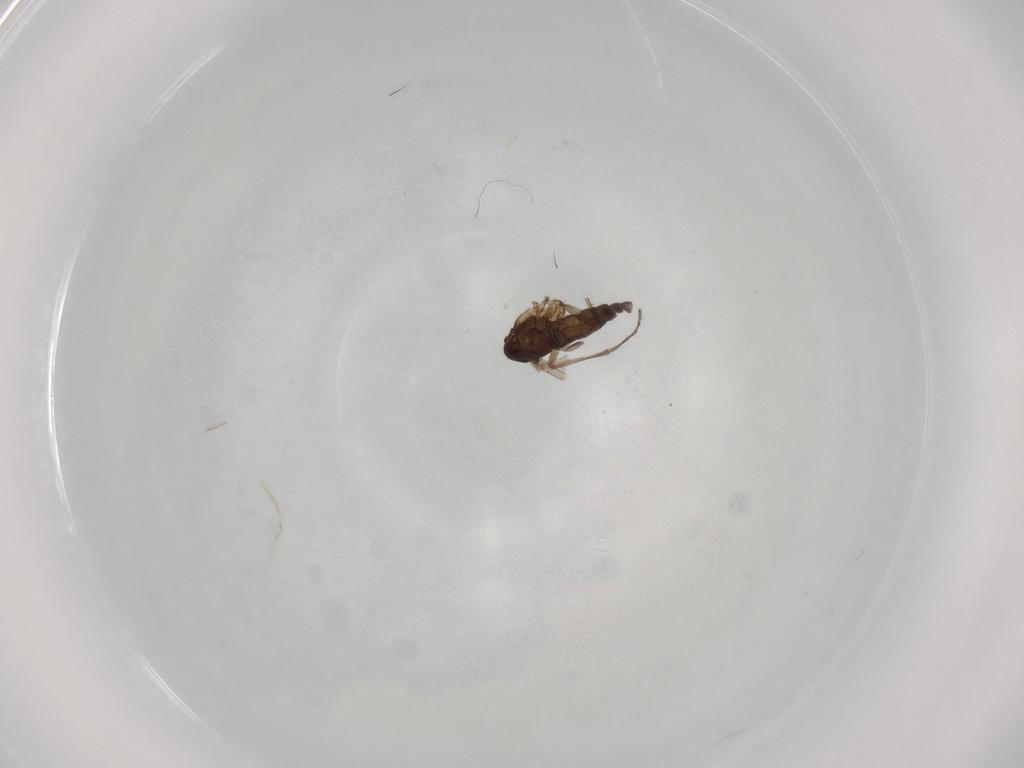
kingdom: Animalia
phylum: Arthropoda
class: Insecta
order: Diptera
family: Sciaridae
